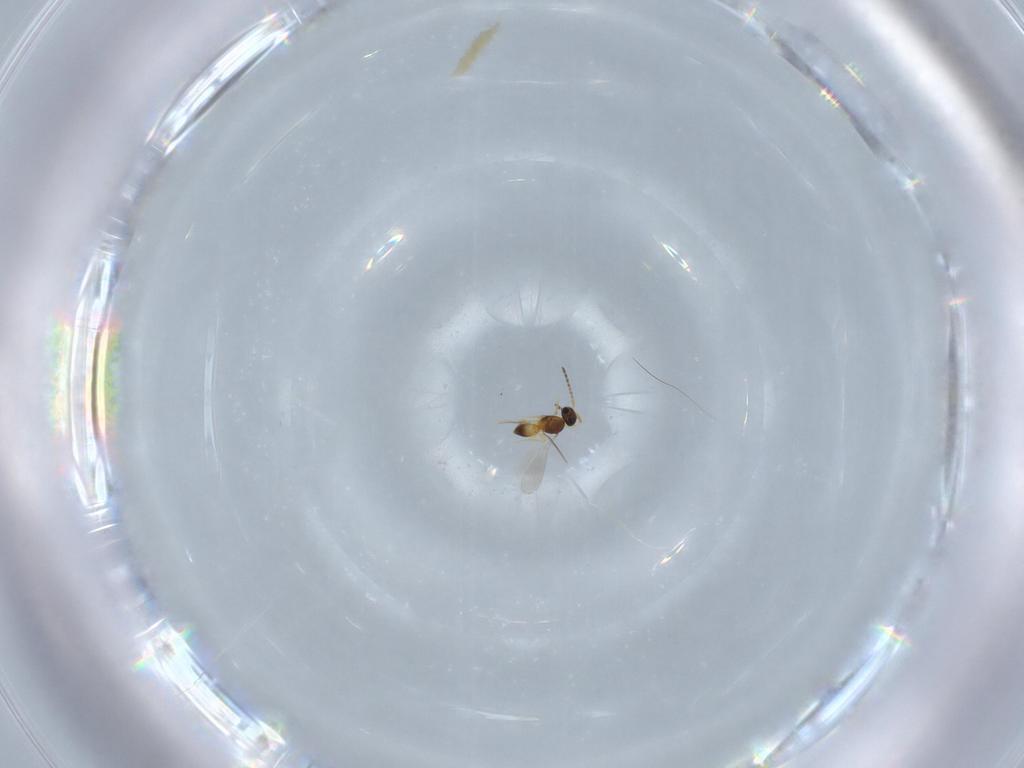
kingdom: Animalia
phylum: Arthropoda
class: Insecta
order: Hymenoptera
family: Platygastridae
